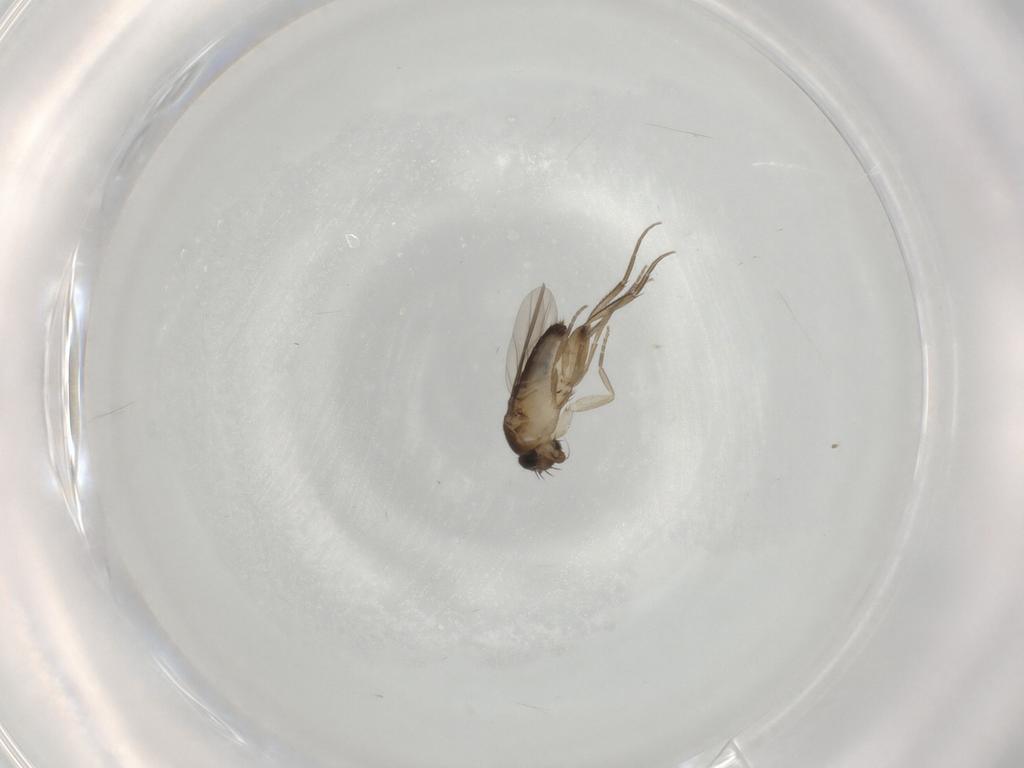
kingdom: Animalia
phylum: Arthropoda
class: Insecta
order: Diptera
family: Phoridae
